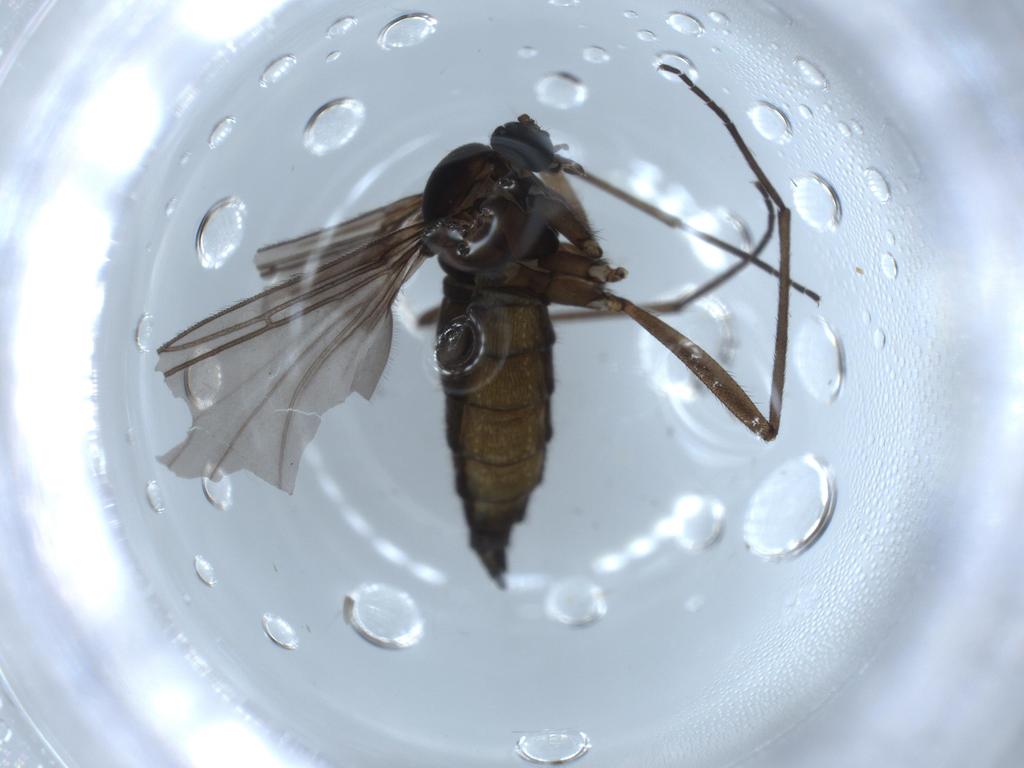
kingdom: Animalia
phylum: Arthropoda
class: Insecta
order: Diptera
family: Sciaridae
